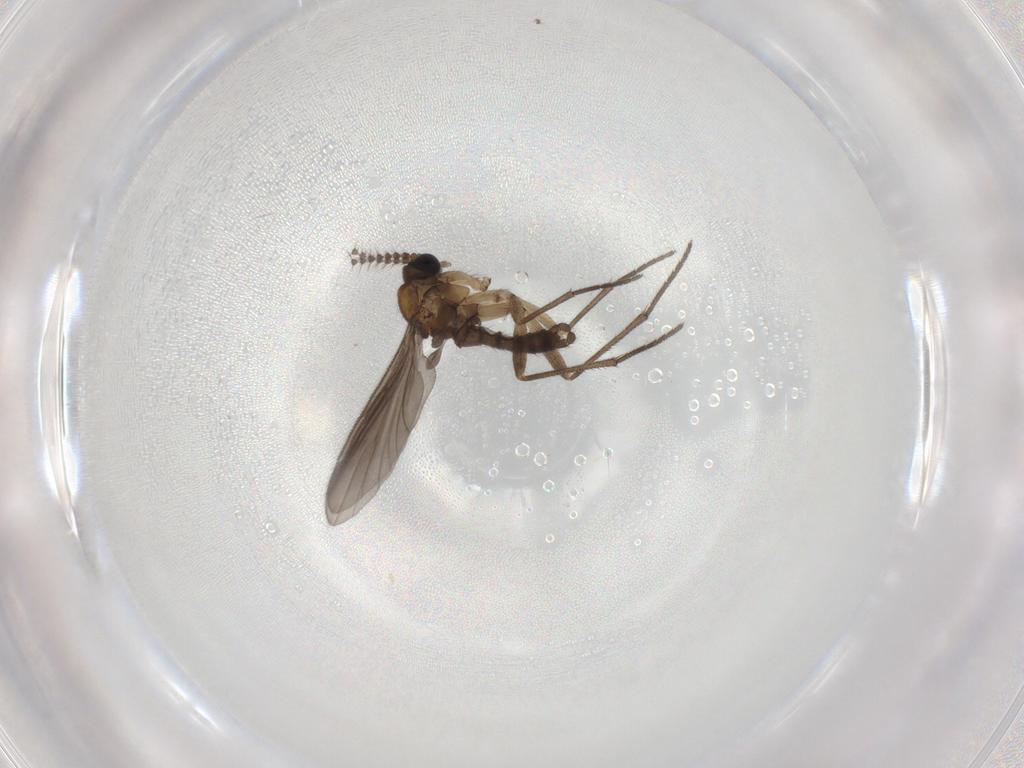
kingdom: Animalia
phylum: Arthropoda
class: Insecta
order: Diptera
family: Sciaridae
